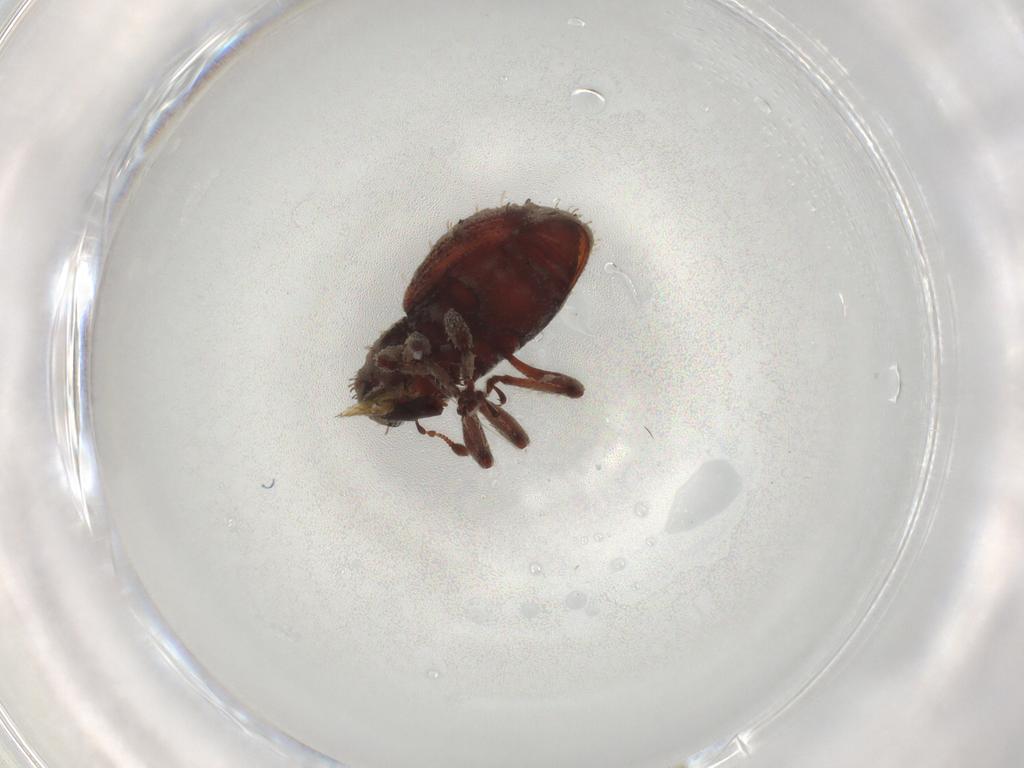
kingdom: Animalia
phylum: Arthropoda
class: Insecta
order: Coleoptera
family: Curculionidae
